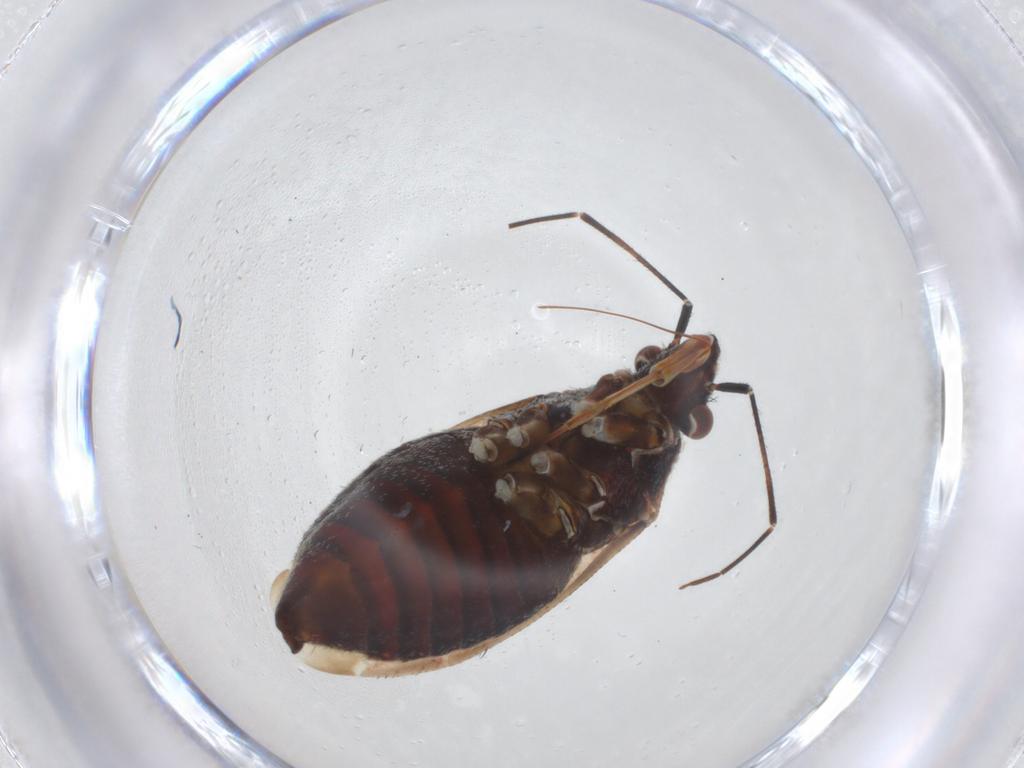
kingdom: Animalia
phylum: Arthropoda
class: Insecta
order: Hemiptera
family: Miridae
